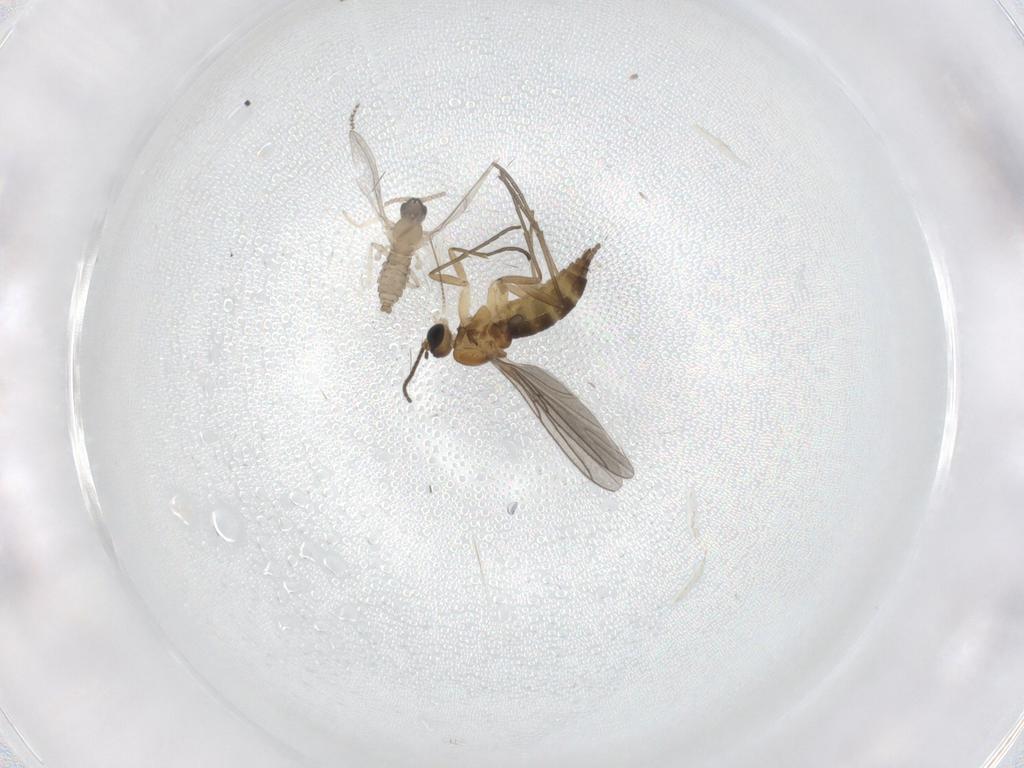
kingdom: Animalia
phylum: Arthropoda
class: Insecta
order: Diptera
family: Cecidomyiidae
